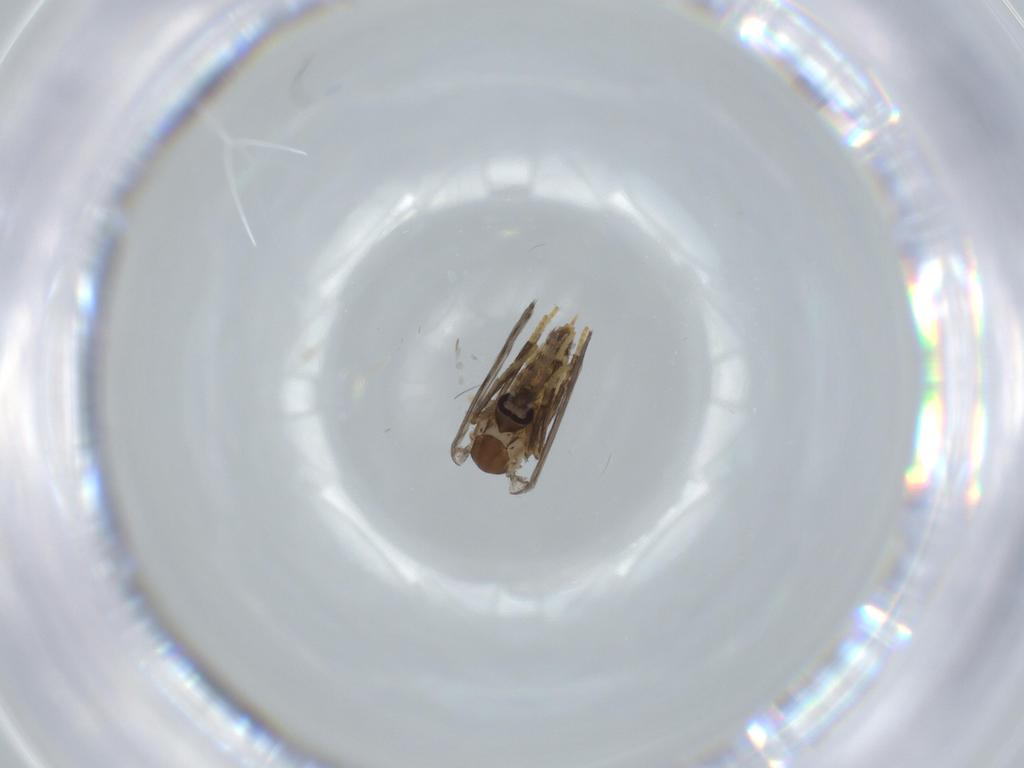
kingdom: Animalia
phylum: Arthropoda
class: Insecta
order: Diptera
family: Psychodidae
